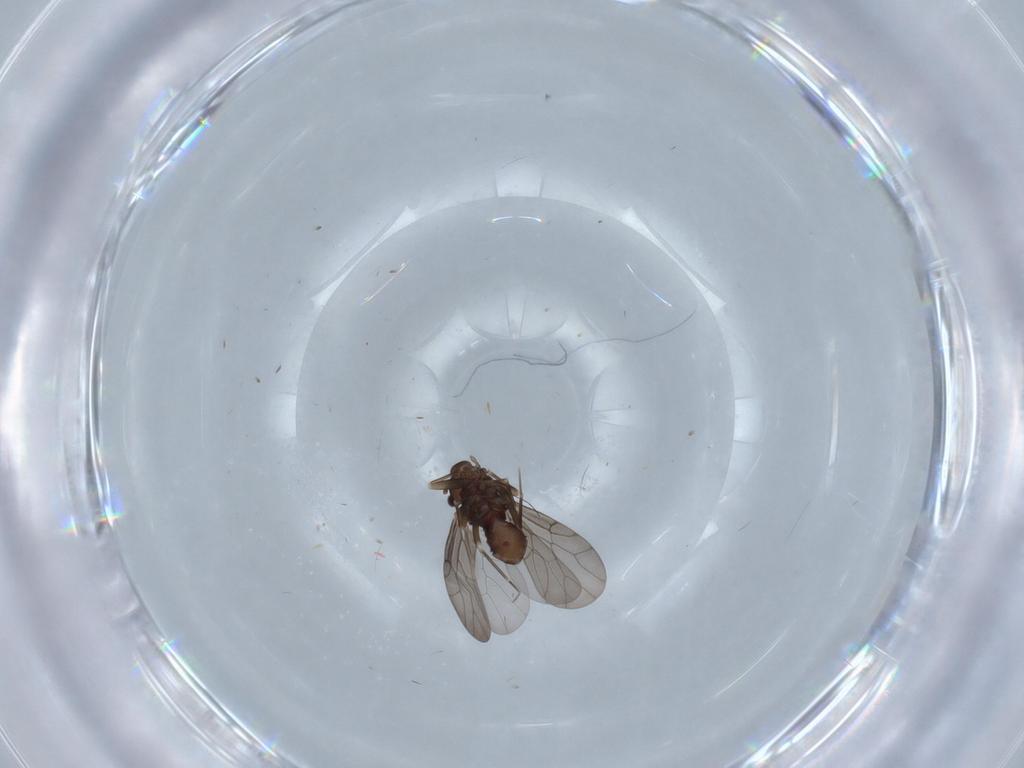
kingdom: Animalia
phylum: Arthropoda
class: Insecta
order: Psocodea
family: Lepidopsocidae
